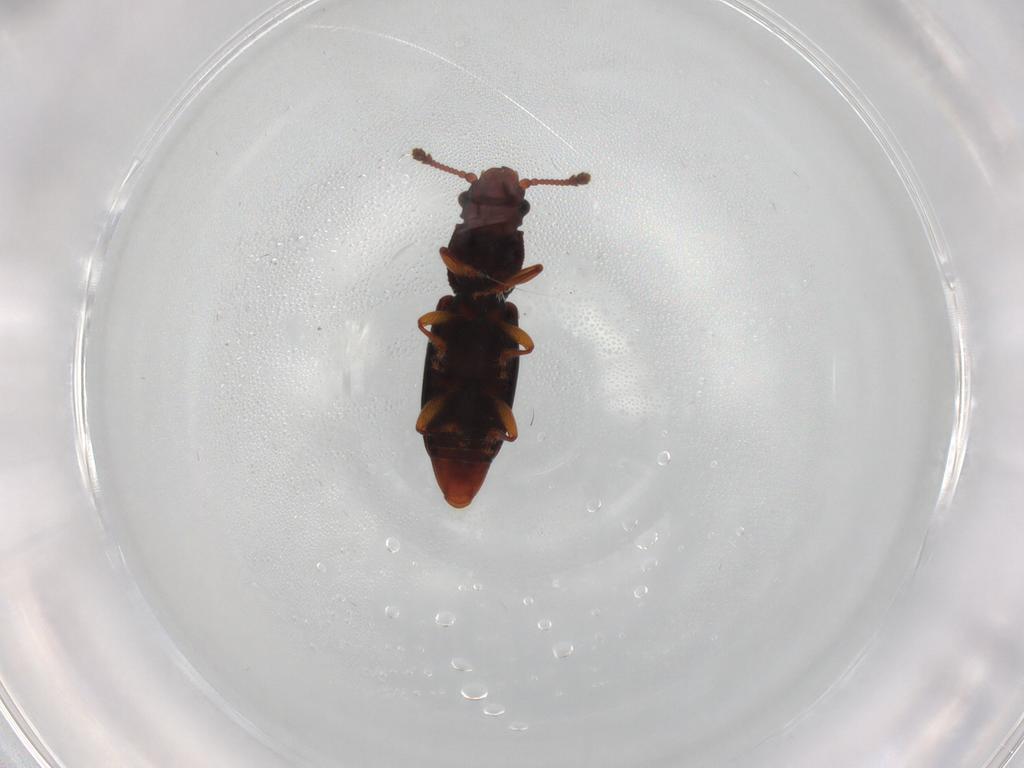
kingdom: Animalia
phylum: Arthropoda
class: Insecta
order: Coleoptera
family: Monotomidae
